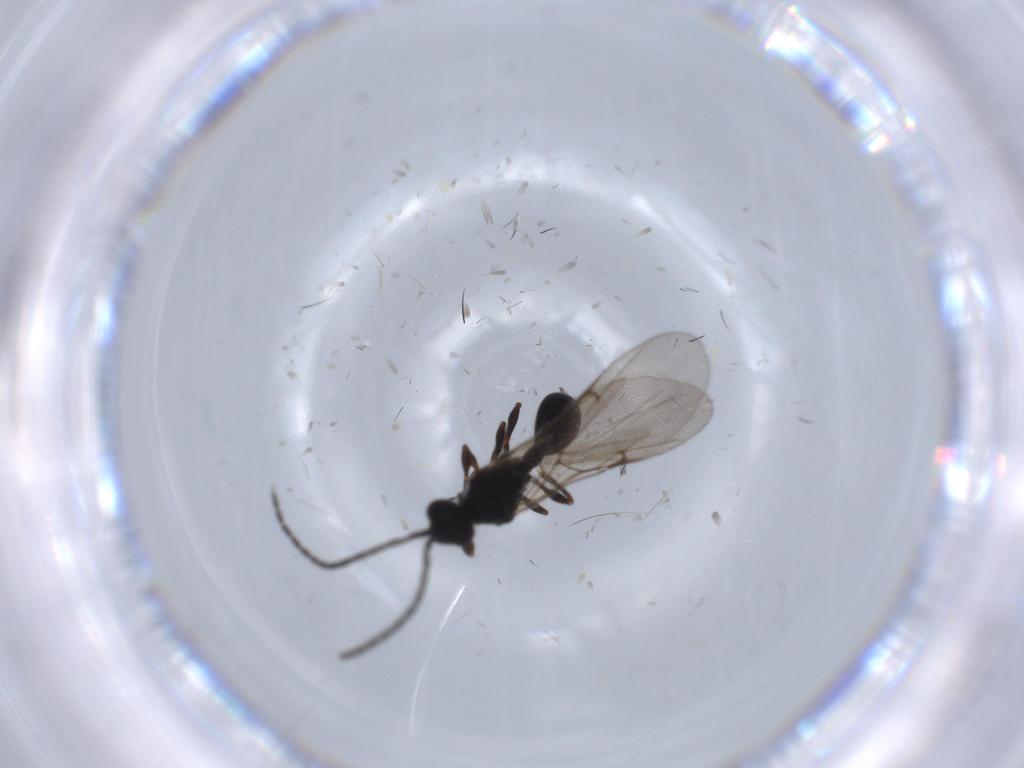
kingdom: Animalia
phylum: Arthropoda
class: Insecta
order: Hymenoptera
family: Diapriidae
